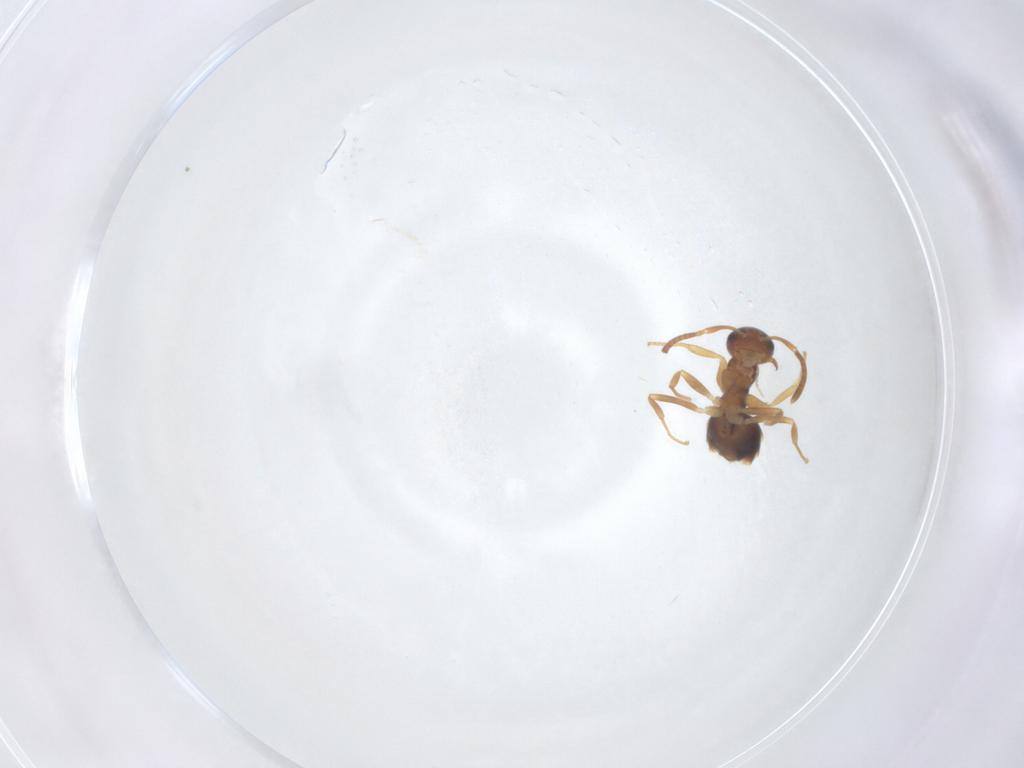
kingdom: Animalia
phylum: Arthropoda
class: Insecta
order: Hymenoptera
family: Formicidae
